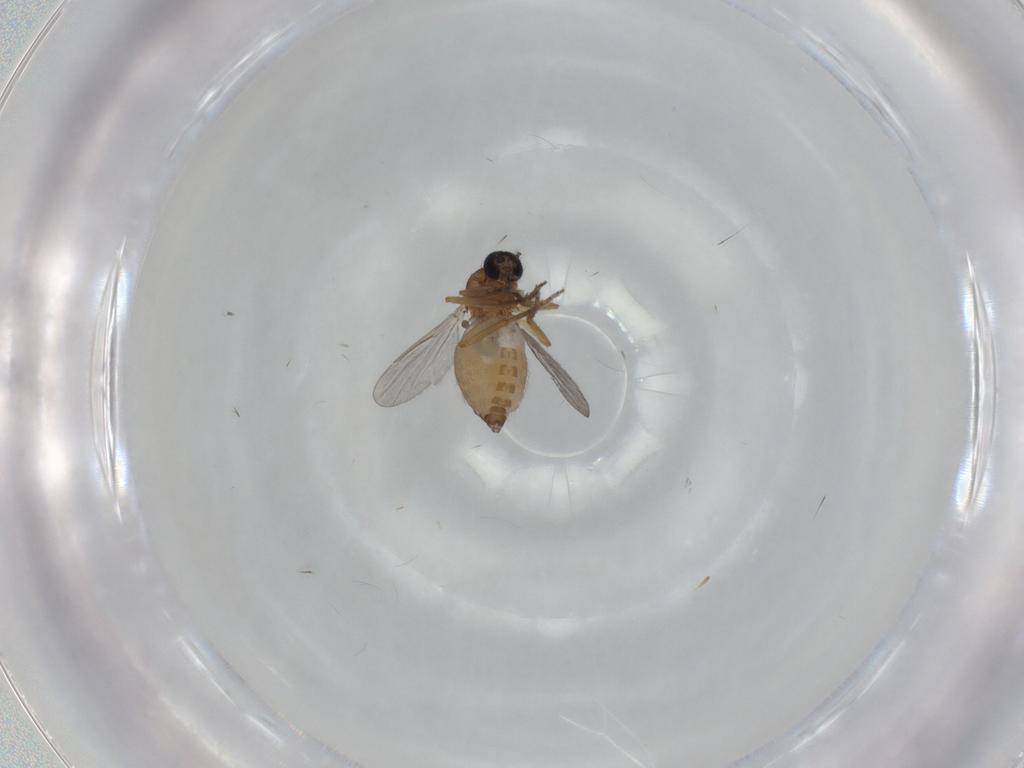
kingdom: Animalia
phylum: Arthropoda
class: Insecta
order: Diptera
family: Ceratopogonidae
